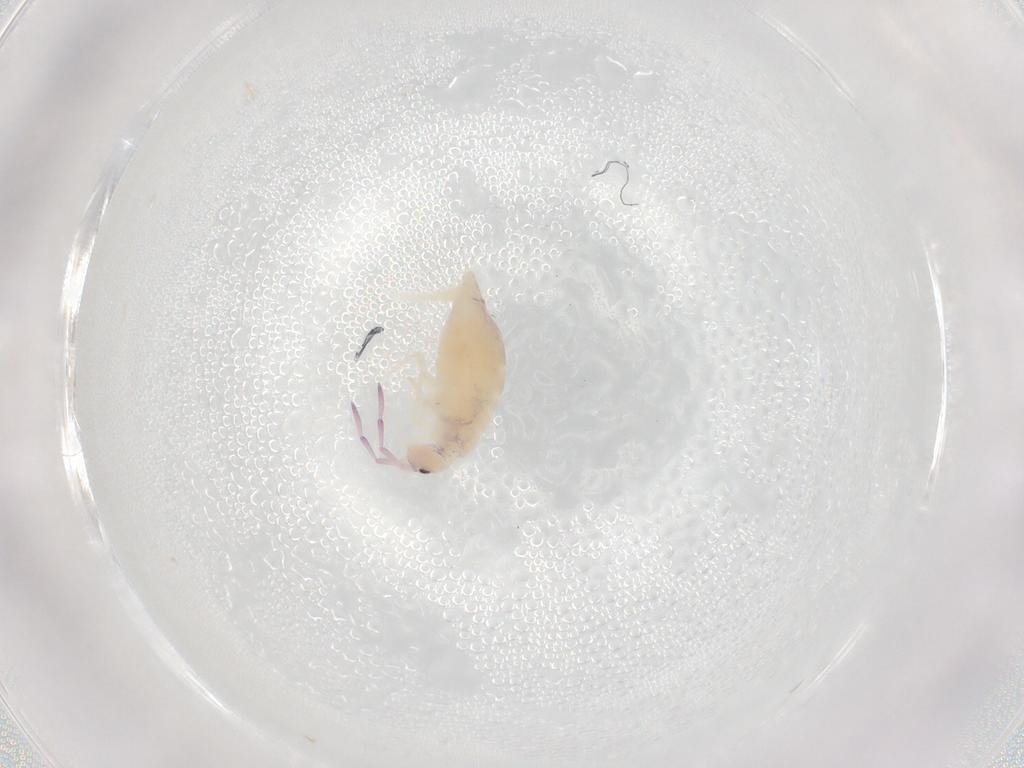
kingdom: Animalia
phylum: Arthropoda
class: Collembola
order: Entomobryomorpha
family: Entomobryidae
